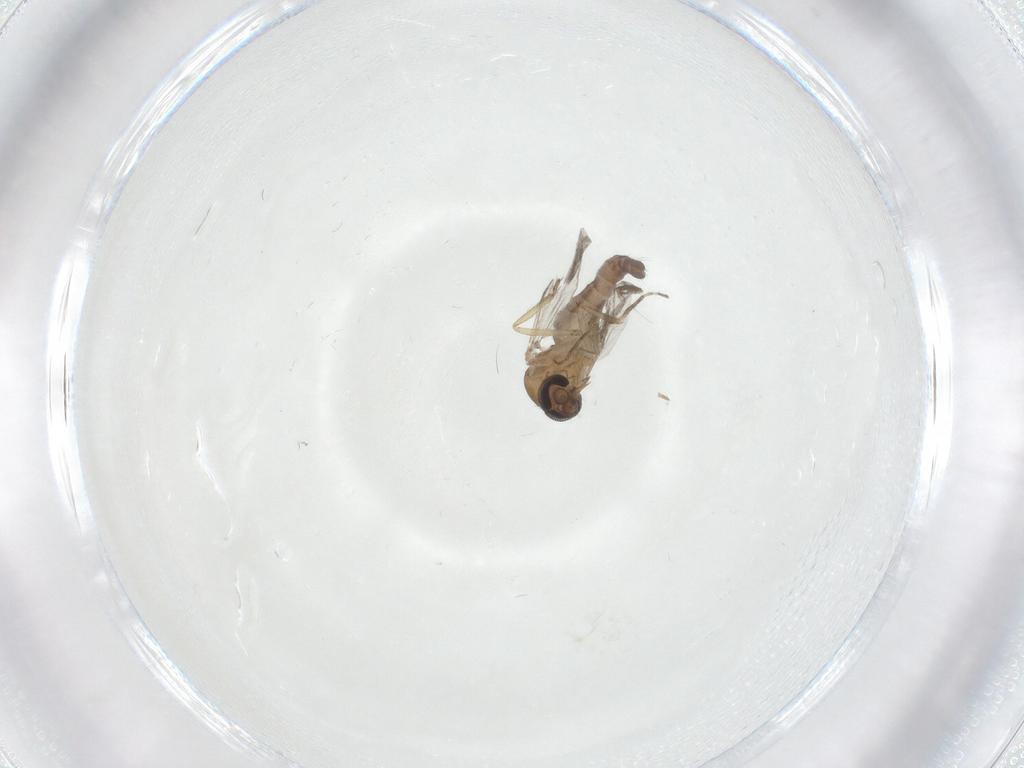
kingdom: Animalia
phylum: Arthropoda
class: Insecta
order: Diptera
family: Ceratopogonidae
